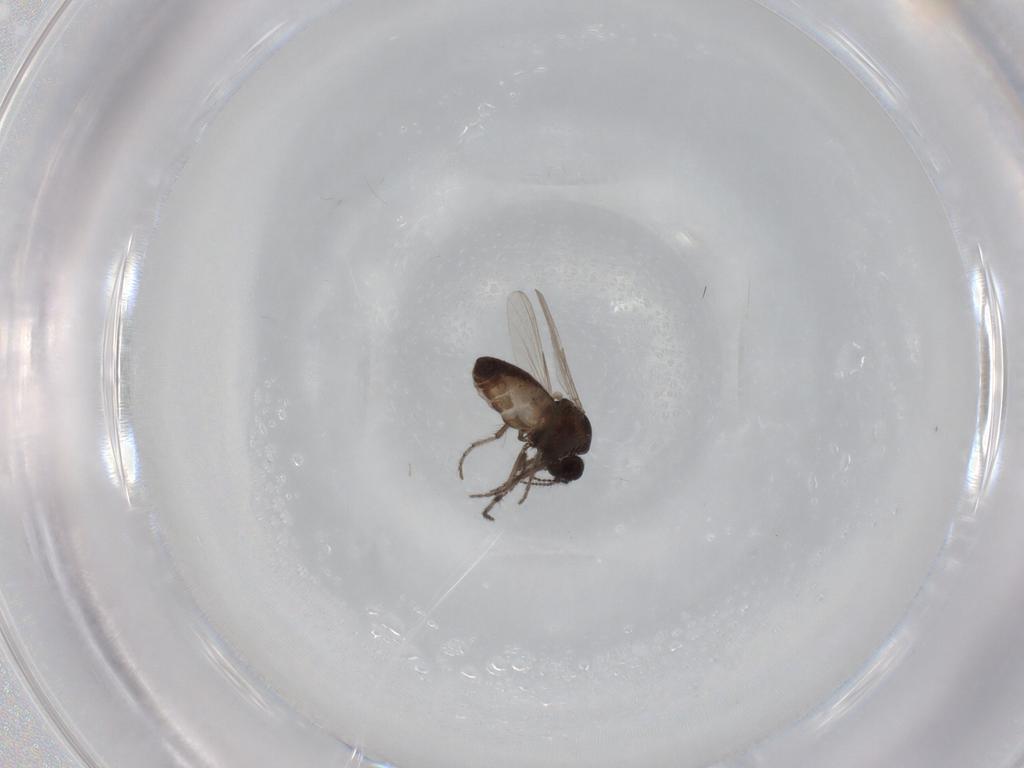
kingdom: Animalia
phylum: Arthropoda
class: Insecta
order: Diptera
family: Ceratopogonidae
